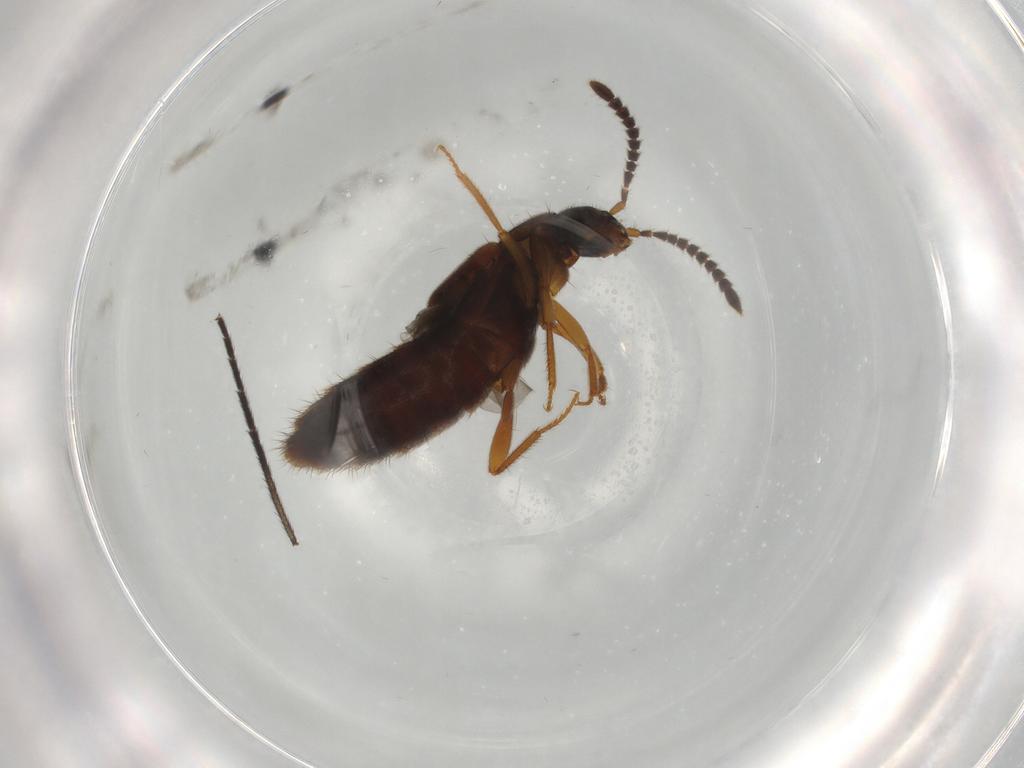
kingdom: Animalia
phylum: Arthropoda
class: Insecta
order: Coleoptera
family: Staphylinidae
